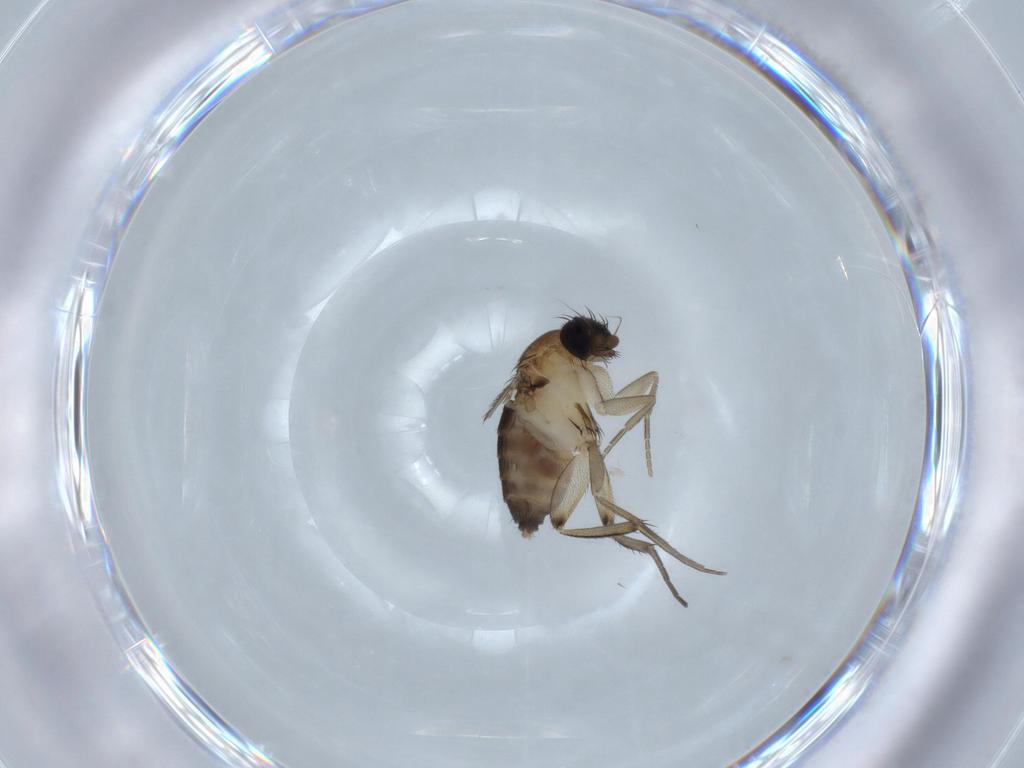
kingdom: Animalia
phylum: Arthropoda
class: Insecta
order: Diptera
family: Phoridae
